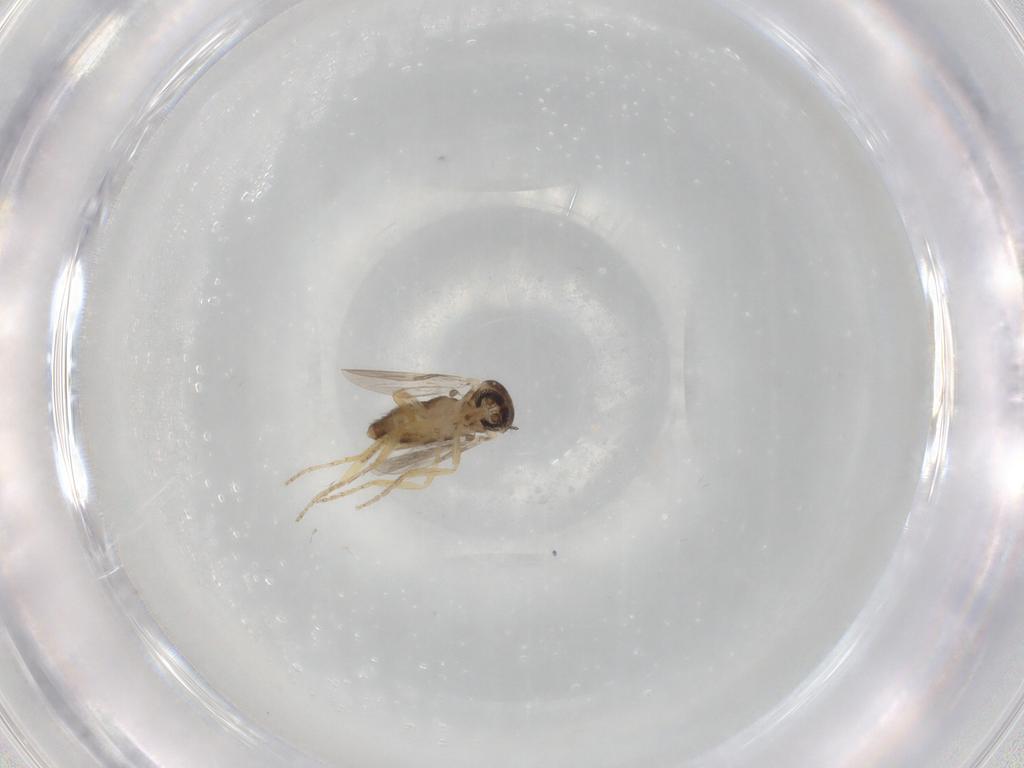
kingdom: Animalia
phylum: Arthropoda
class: Insecta
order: Diptera
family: Ceratopogonidae
